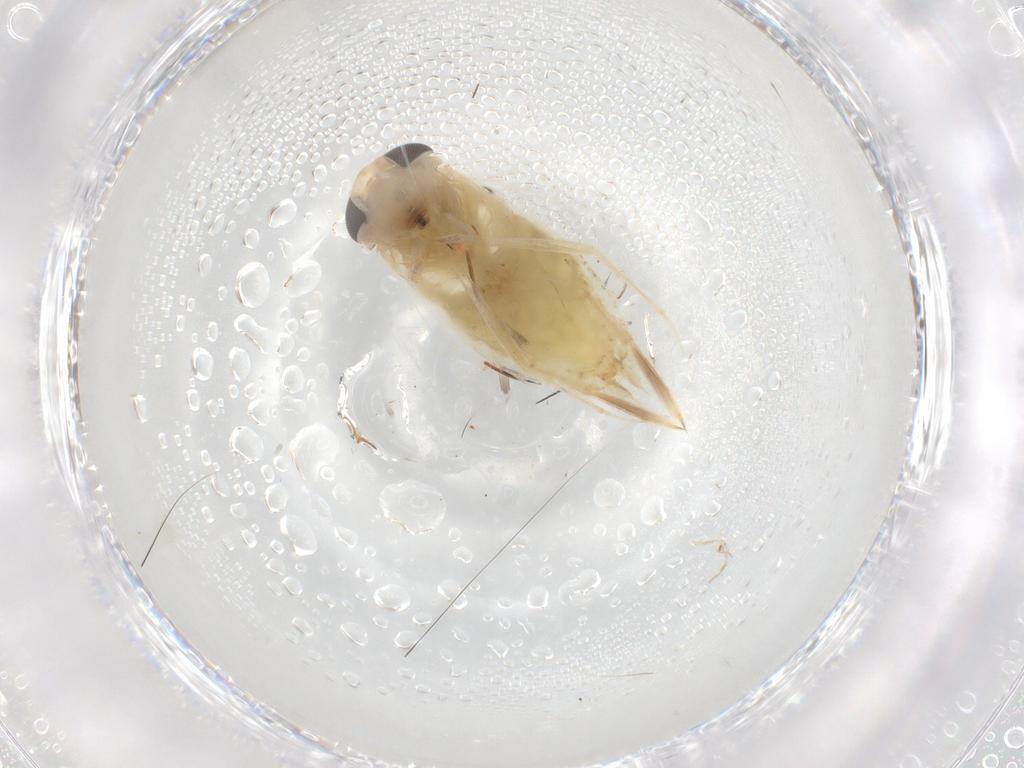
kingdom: Animalia
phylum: Arthropoda
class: Insecta
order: Hemiptera
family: Corixidae
